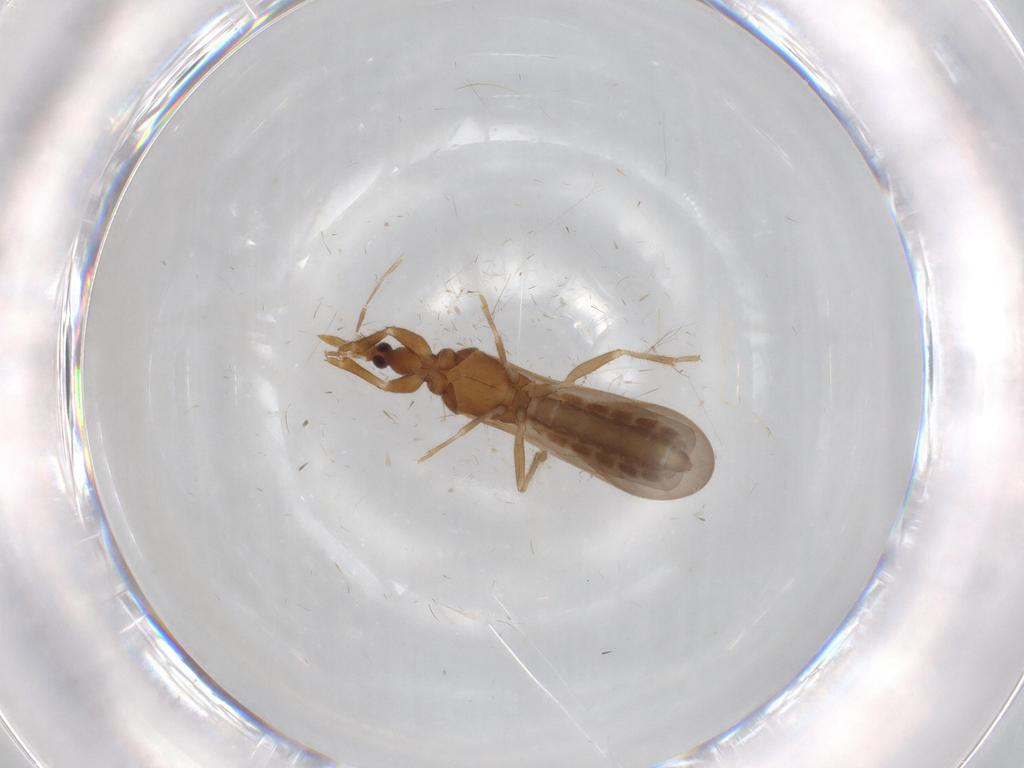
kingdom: Animalia
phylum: Arthropoda
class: Insecta
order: Hemiptera
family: Enicocephalidae
